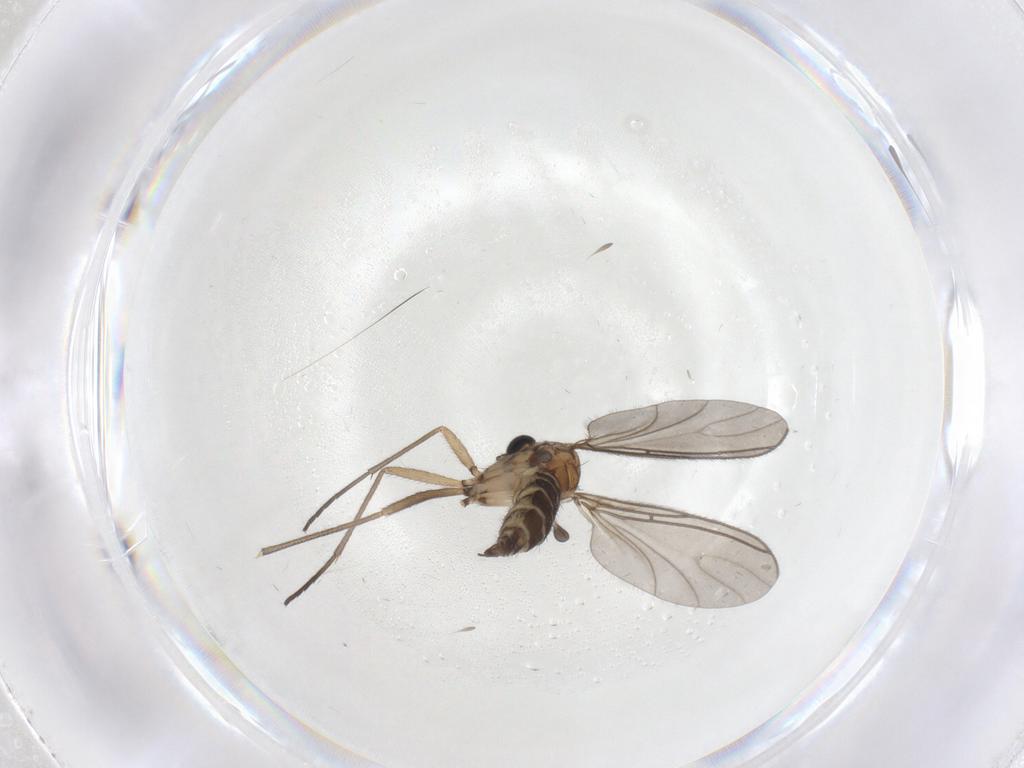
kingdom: Animalia
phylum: Arthropoda
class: Insecta
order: Diptera
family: Sciaridae
